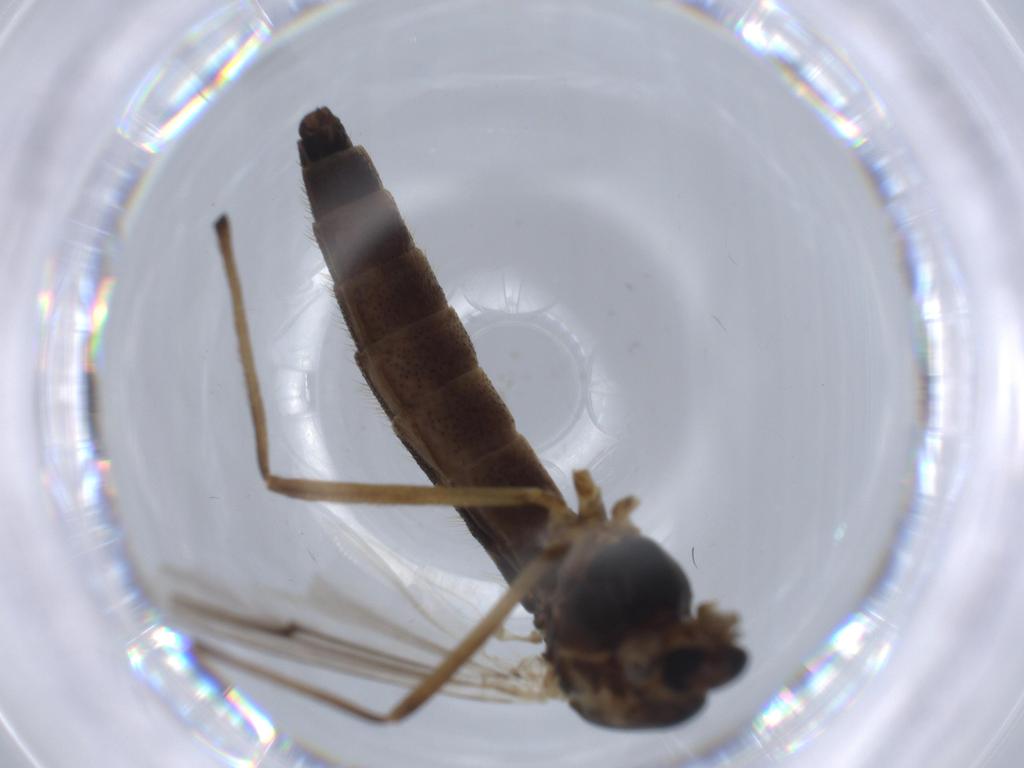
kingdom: Animalia
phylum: Arthropoda
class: Insecta
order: Diptera
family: Chironomidae
